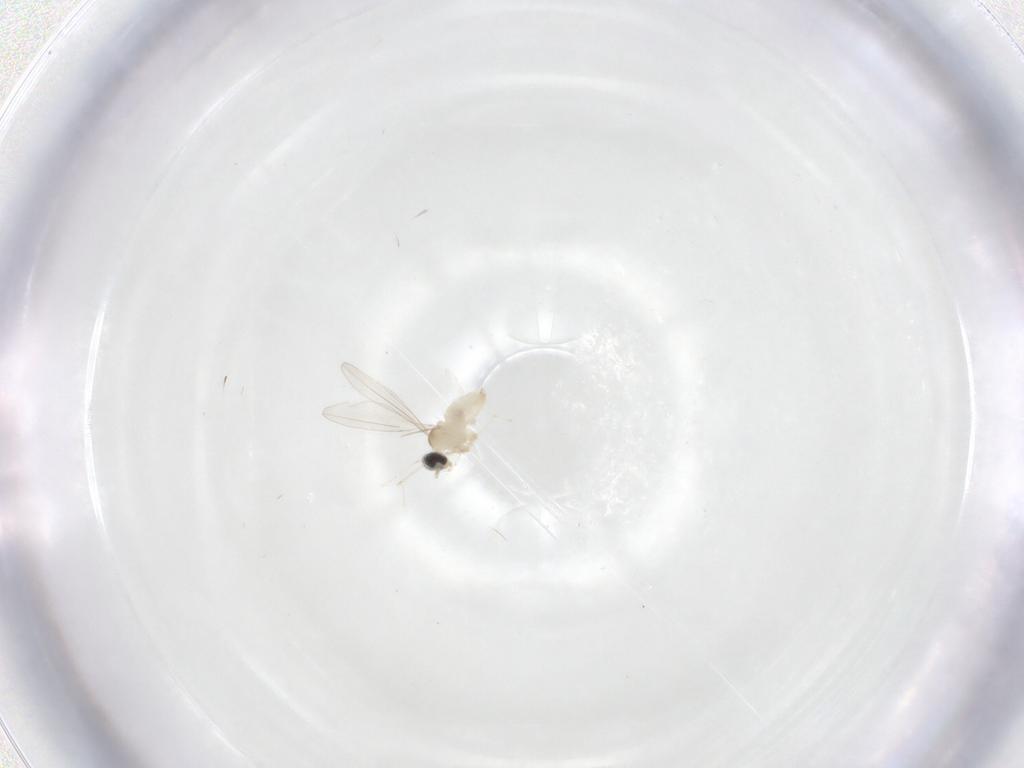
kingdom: Animalia
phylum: Arthropoda
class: Insecta
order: Diptera
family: Cecidomyiidae
